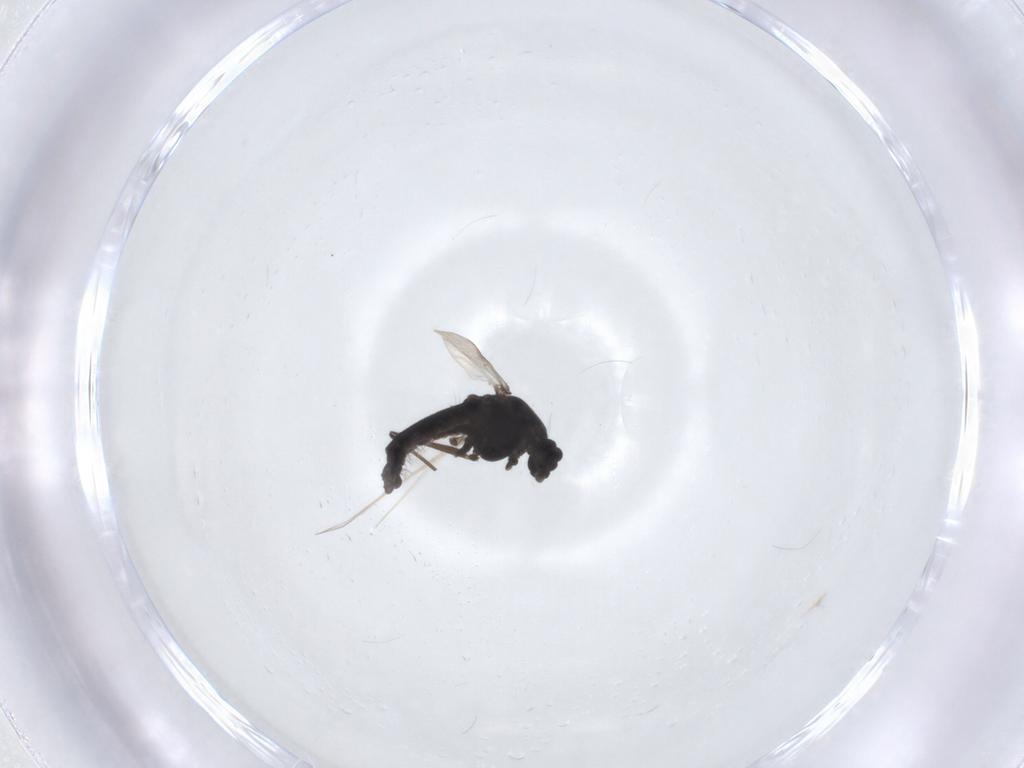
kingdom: Animalia
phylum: Arthropoda
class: Insecta
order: Diptera
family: Chironomidae
